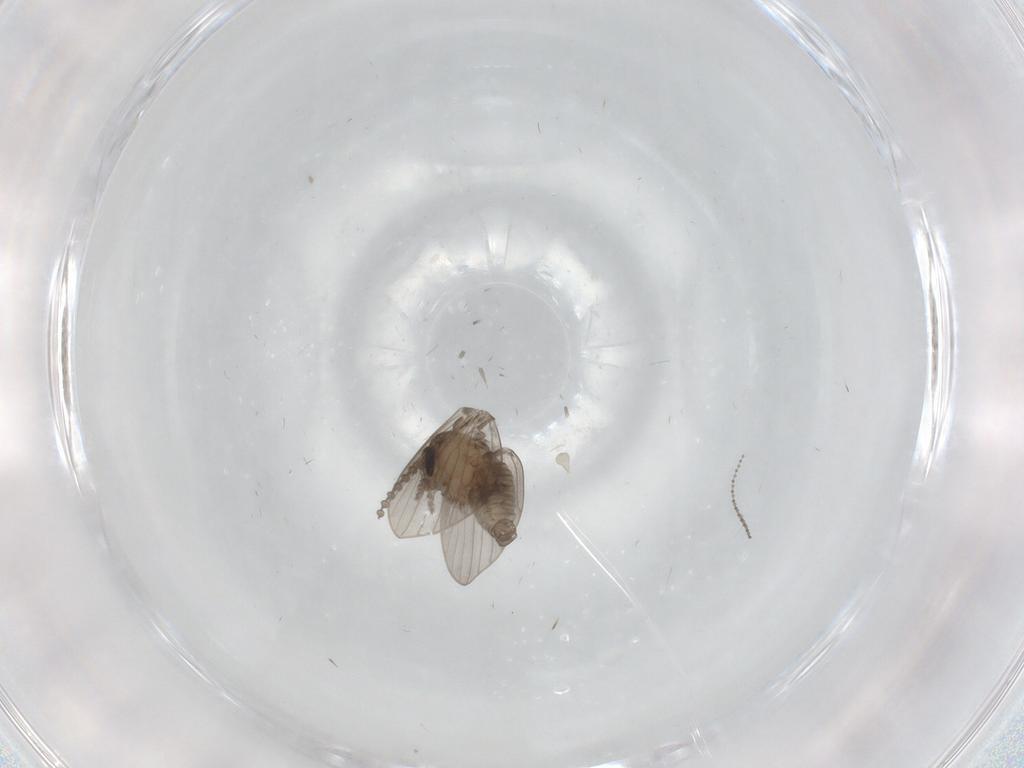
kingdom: Animalia
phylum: Arthropoda
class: Insecta
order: Diptera
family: Psychodidae
